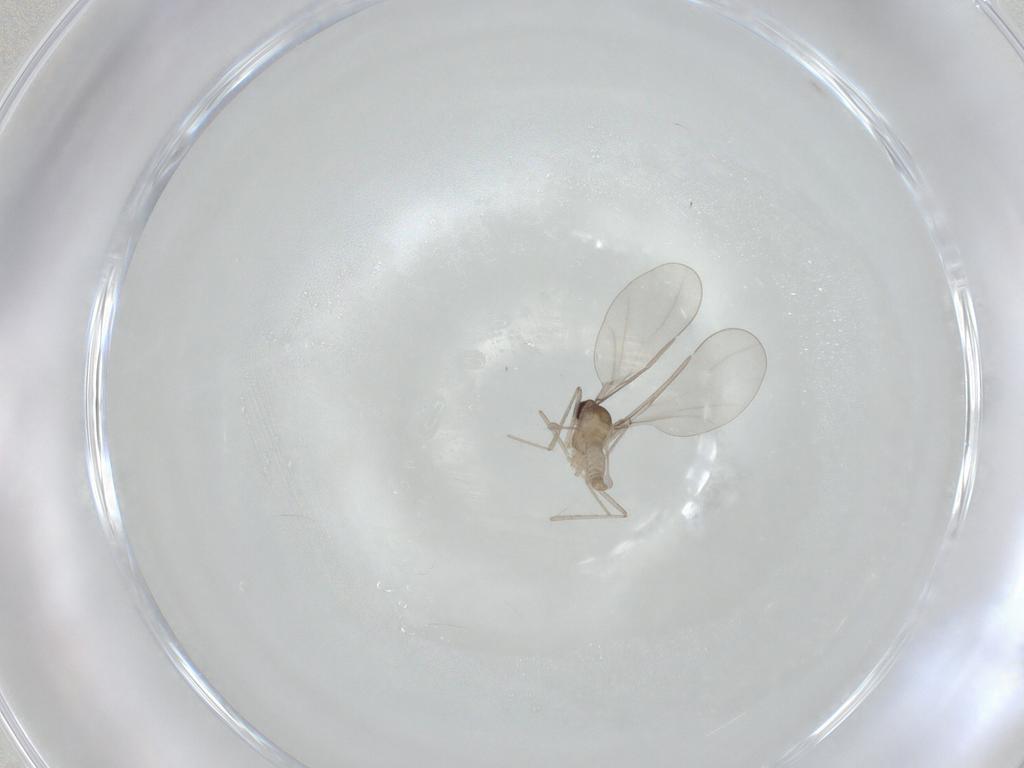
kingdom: Animalia
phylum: Arthropoda
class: Insecta
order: Diptera
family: Cecidomyiidae
